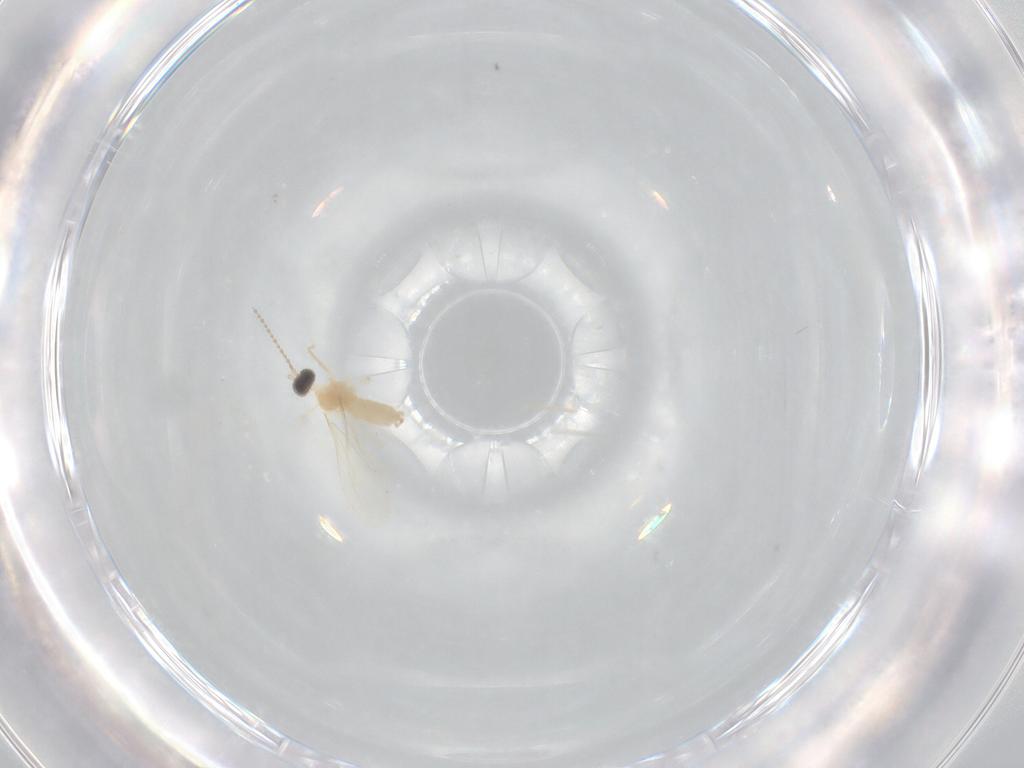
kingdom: Animalia
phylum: Arthropoda
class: Insecta
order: Diptera
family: Cecidomyiidae
